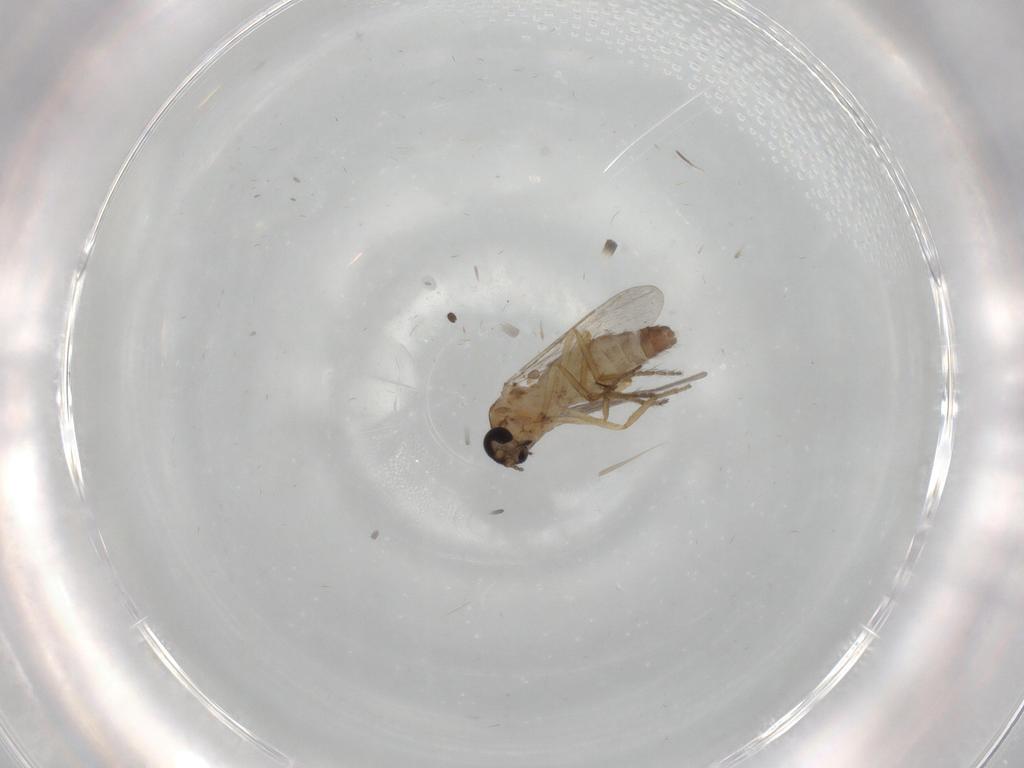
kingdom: Animalia
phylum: Arthropoda
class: Insecta
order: Diptera
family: Ceratopogonidae
